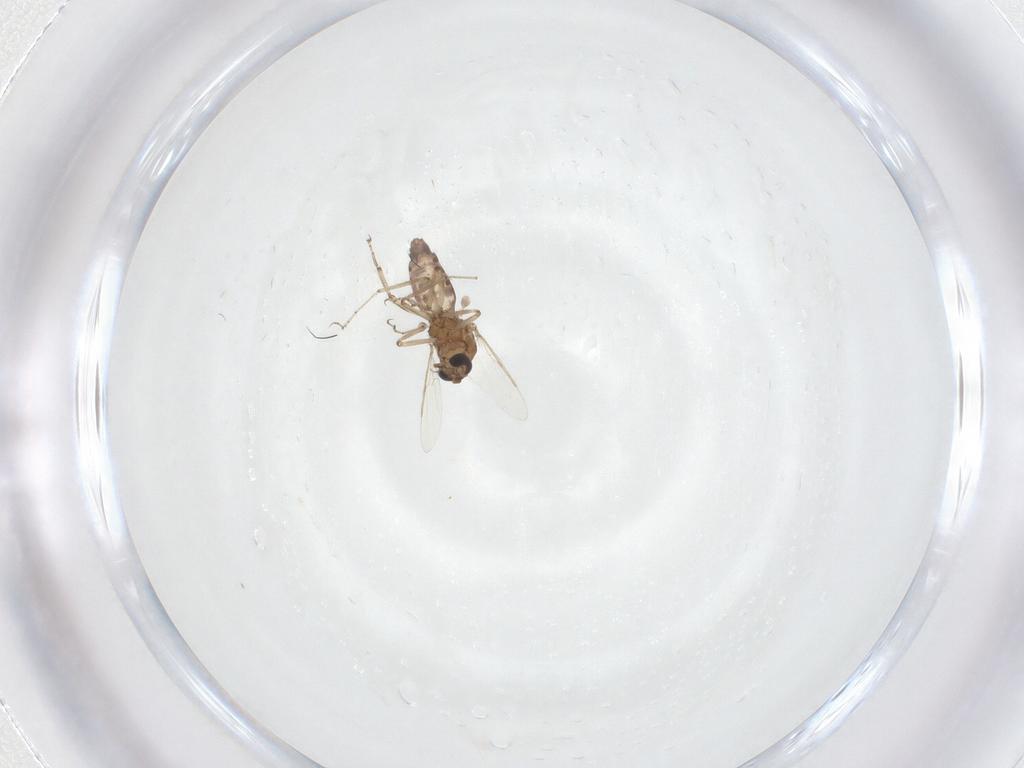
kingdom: Animalia
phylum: Arthropoda
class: Insecta
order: Diptera
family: Ceratopogonidae
